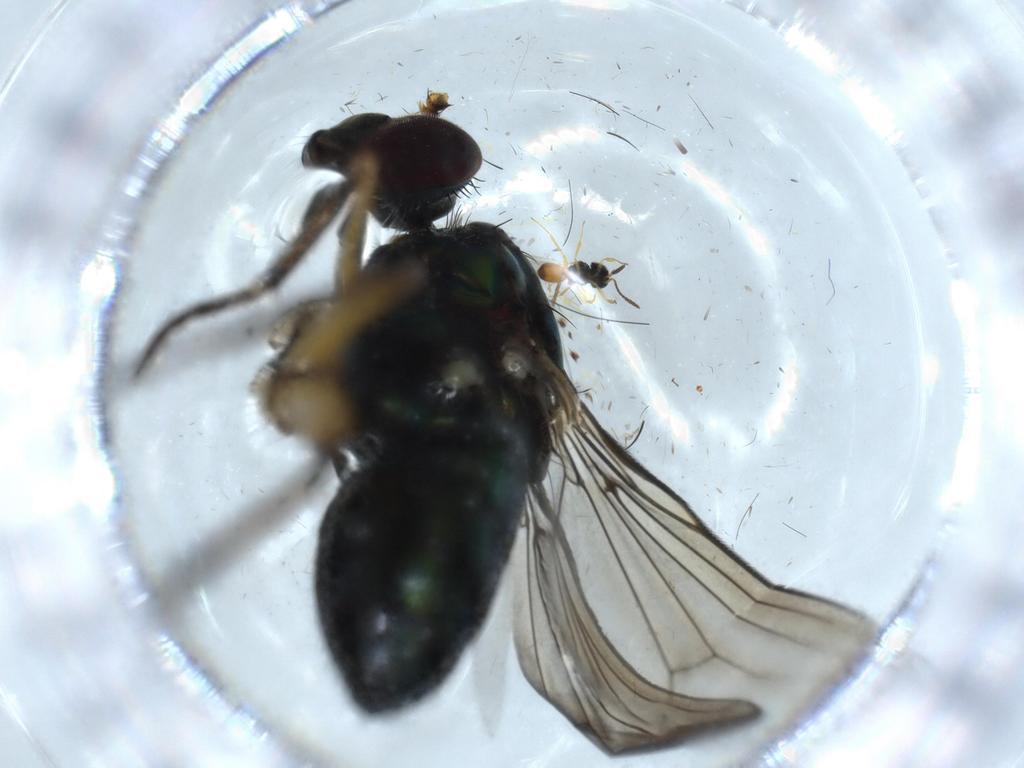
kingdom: Animalia
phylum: Arthropoda
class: Insecta
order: Diptera
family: Dolichopodidae
